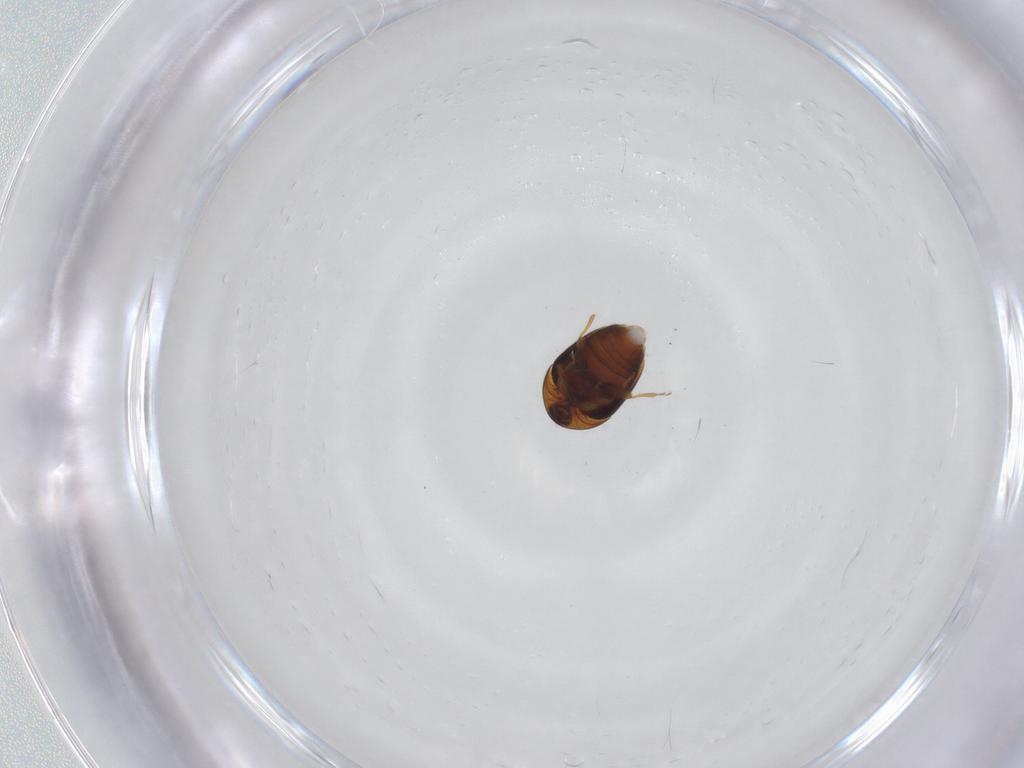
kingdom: Animalia
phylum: Arthropoda
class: Insecta
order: Coleoptera
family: Corylophidae
